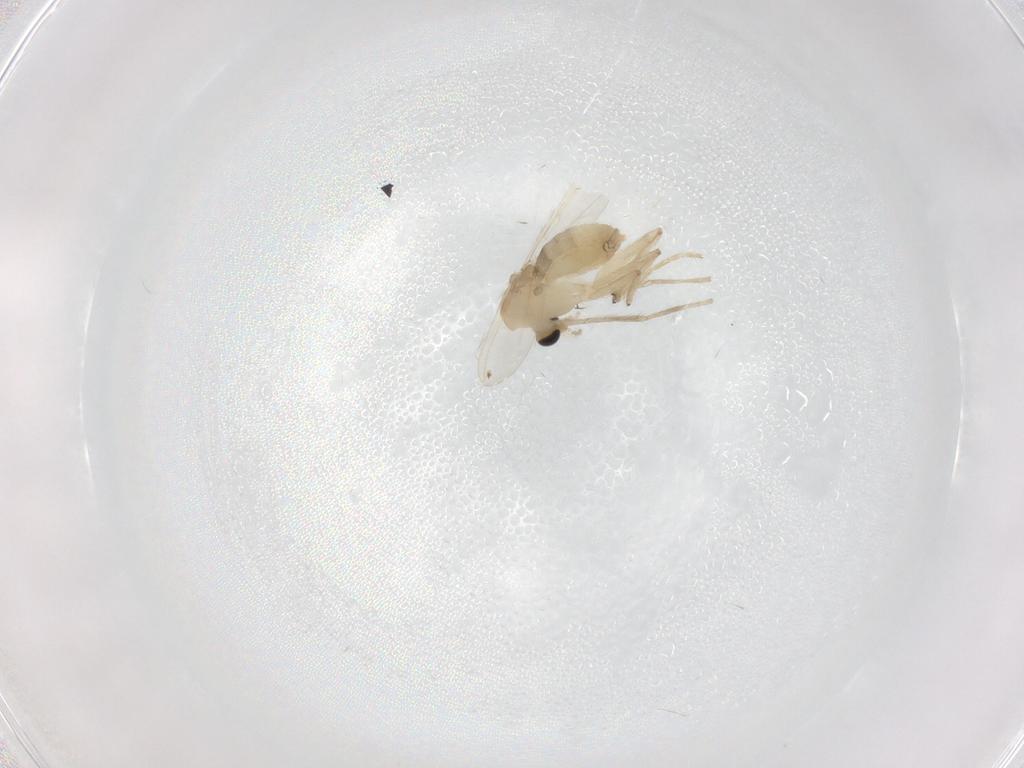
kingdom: Animalia
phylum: Arthropoda
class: Insecta
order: Diptera
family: Chironomidae
